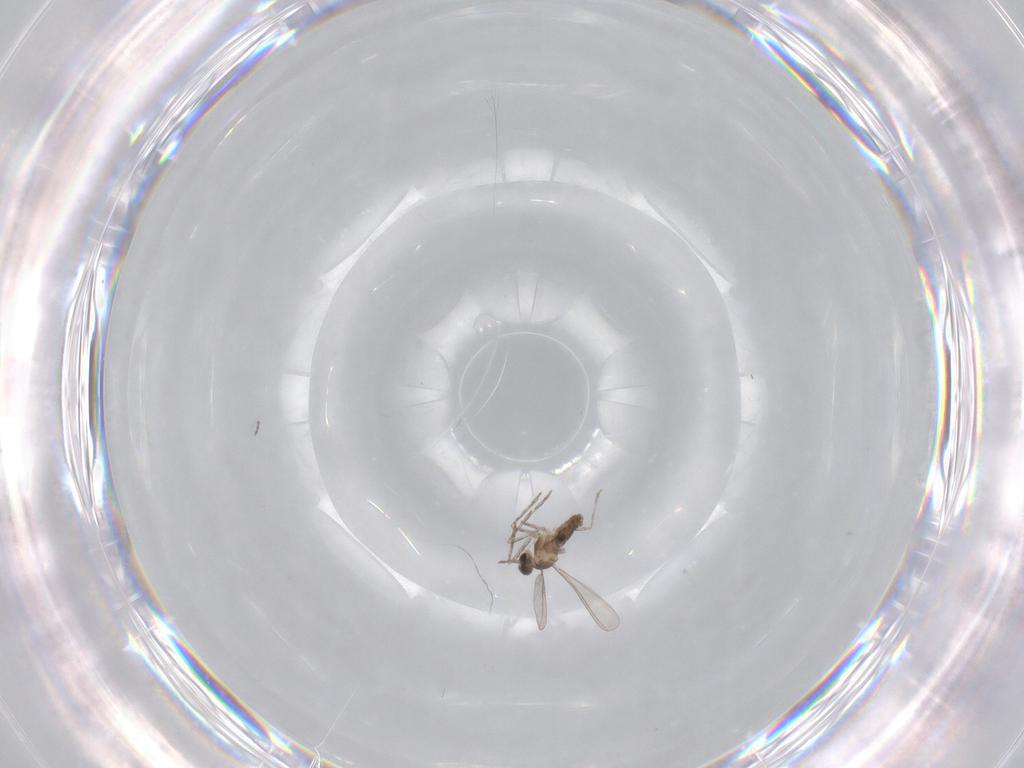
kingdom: Animalia
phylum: Arthropoda
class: Insecta
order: Diptera
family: Chironomidae
